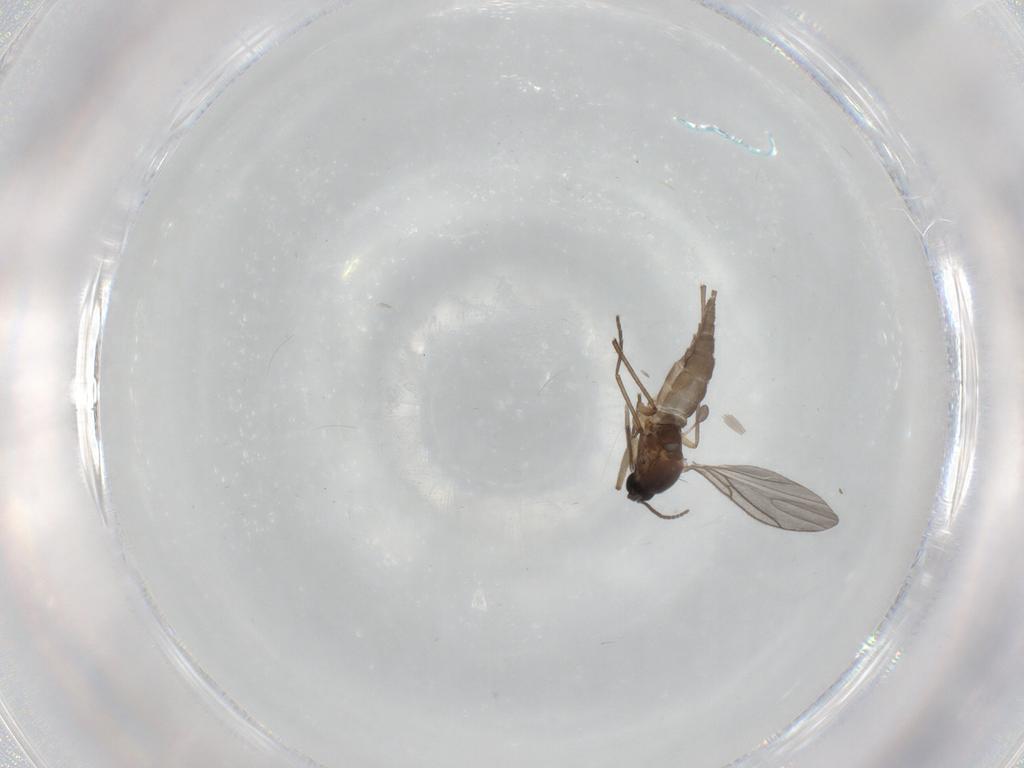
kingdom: Animalia
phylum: Arthropoda
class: Insecta
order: Diptera
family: Sciaridae
